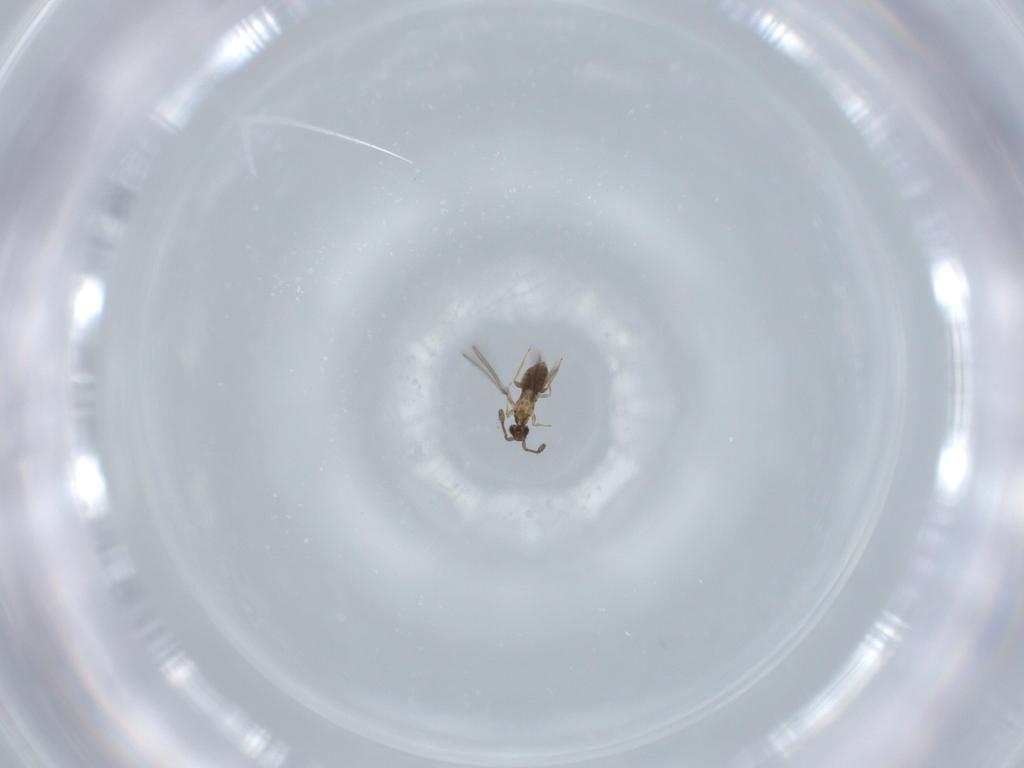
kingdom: Animalia
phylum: Arthropoda
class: Insecta
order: Hymenoptera
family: Mymaridae
